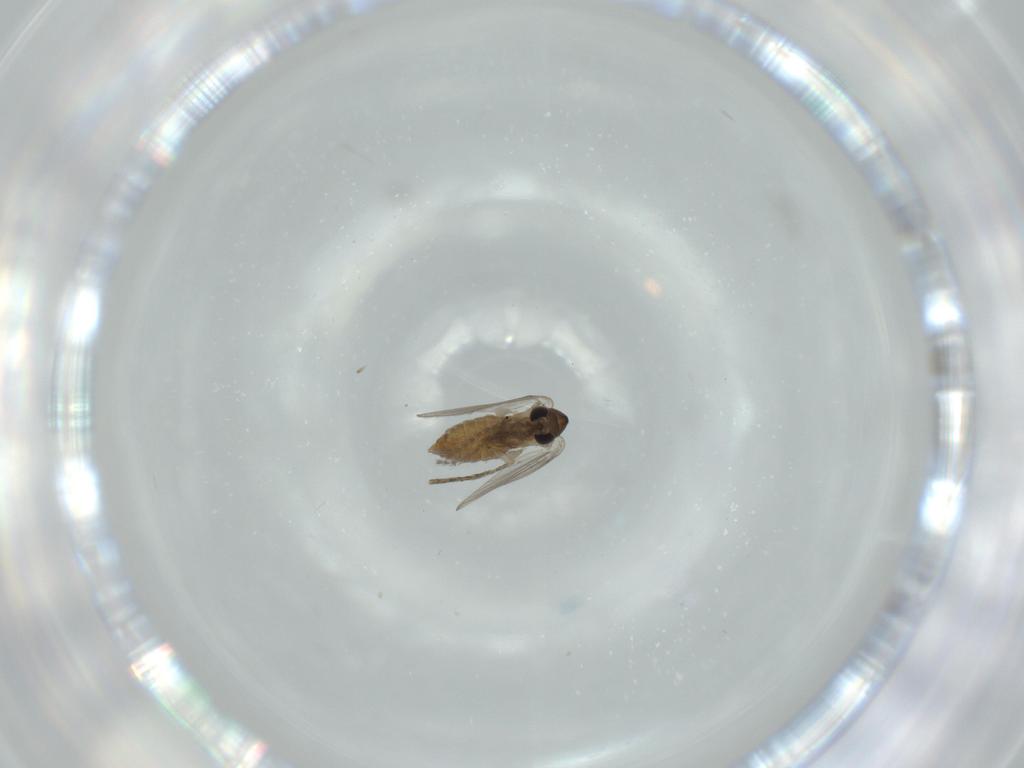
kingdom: Animalia
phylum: Arthropoda
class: Insecta
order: Diptera
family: Psychodidae
